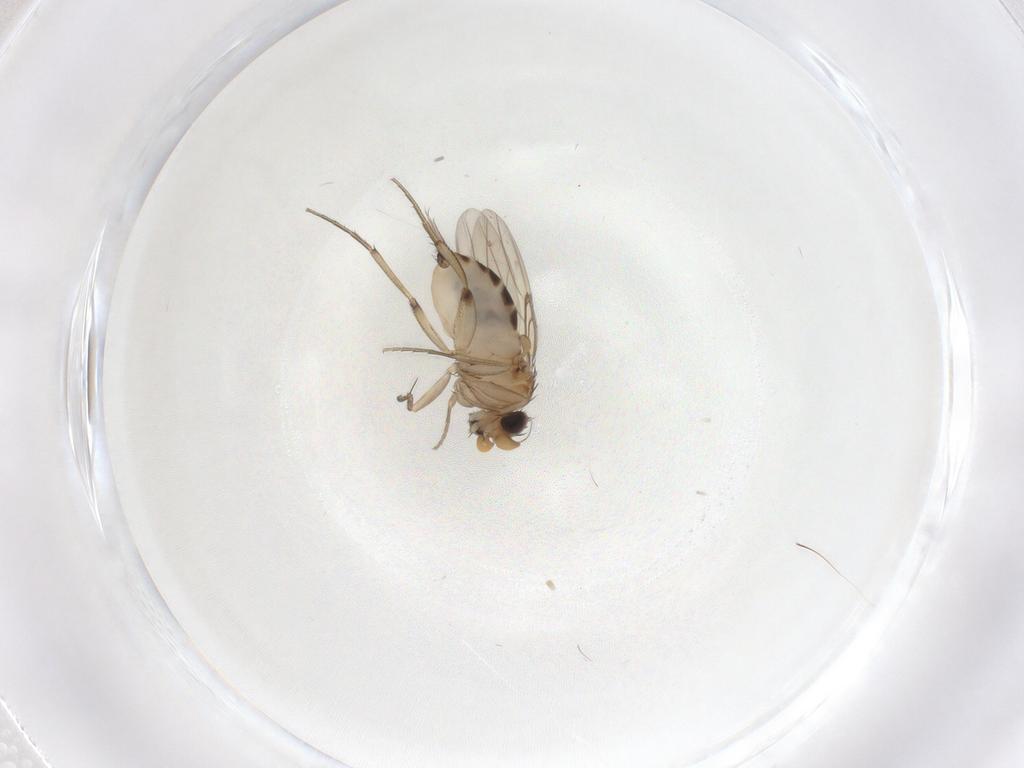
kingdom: Animalia
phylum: Arthropoda
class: Insecta
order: Diptera
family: Phoridae
